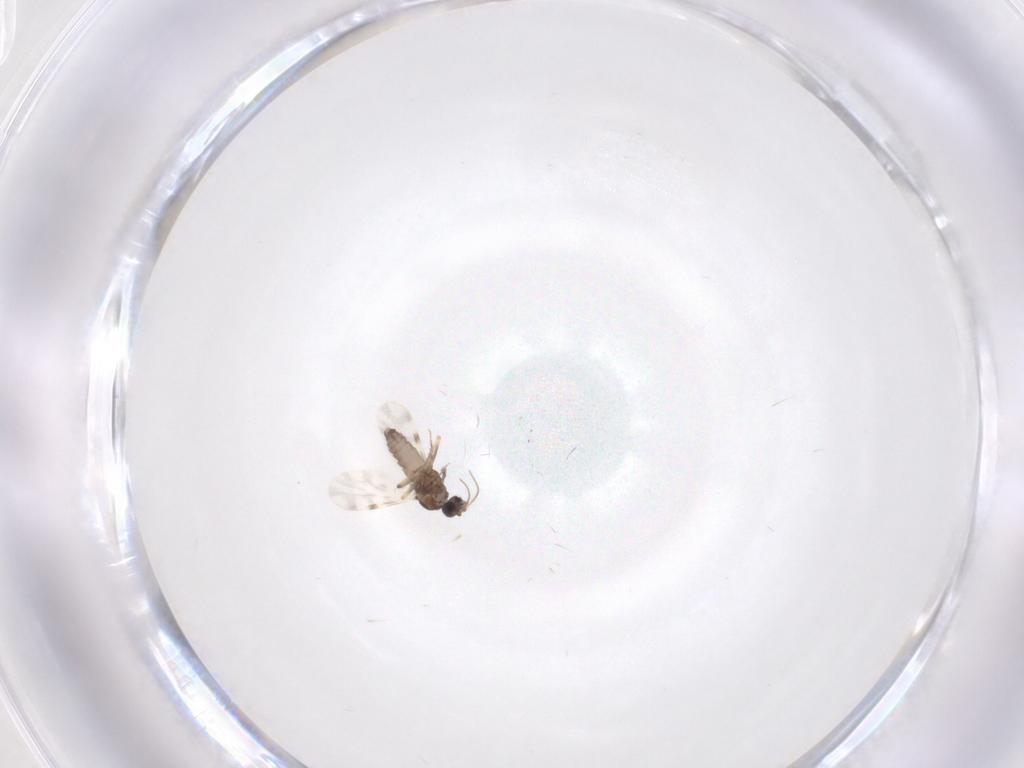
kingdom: Animalia
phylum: Arthropoda
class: Insecta
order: Diptera
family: Ceratopogonidae
